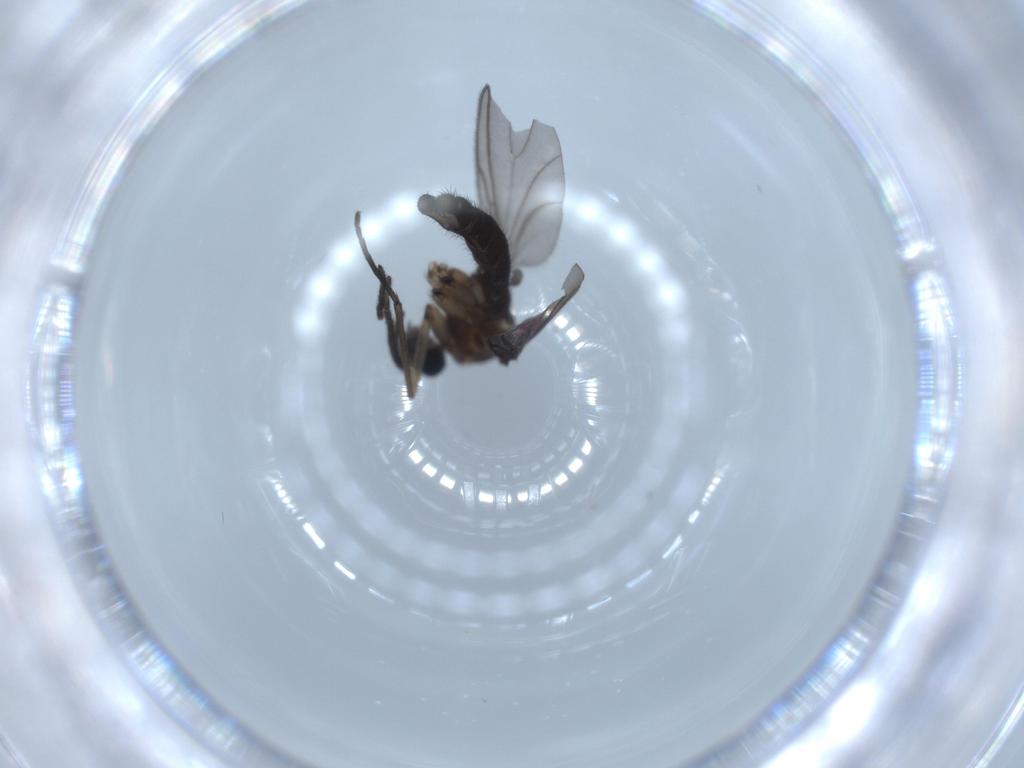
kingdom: Animalia
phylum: Arthropoda
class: Insecta
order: Diptera
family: Sciaridae
